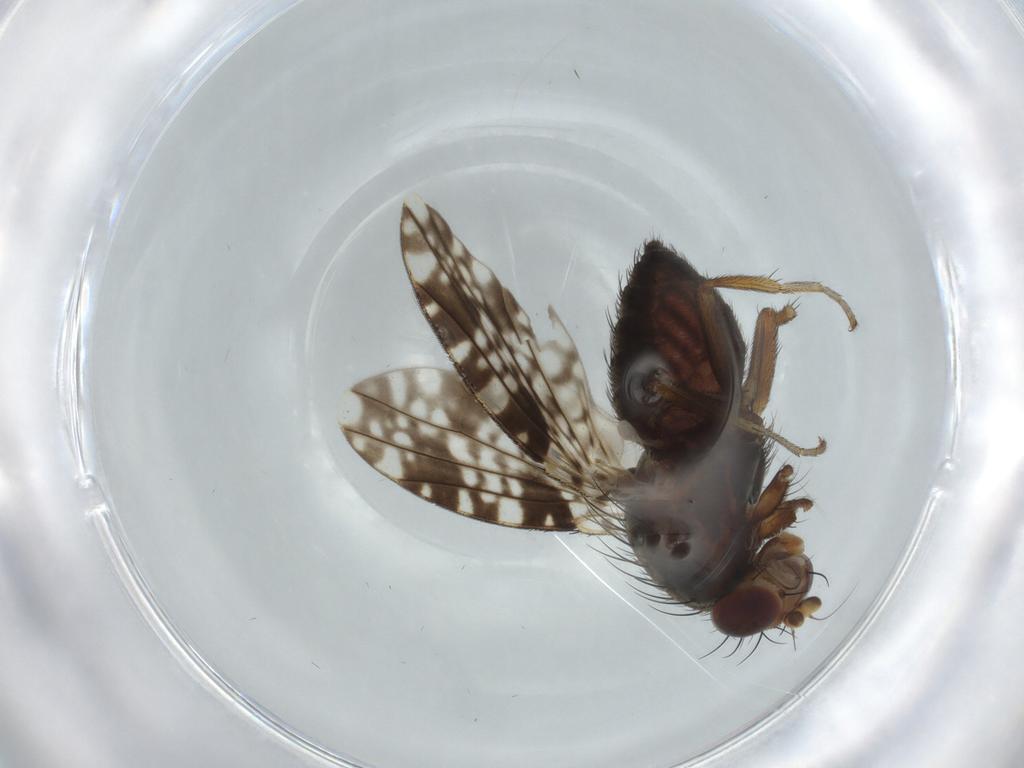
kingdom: Animalia
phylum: Arthropoda
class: Insecta
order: Diptera
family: Tephritidae
